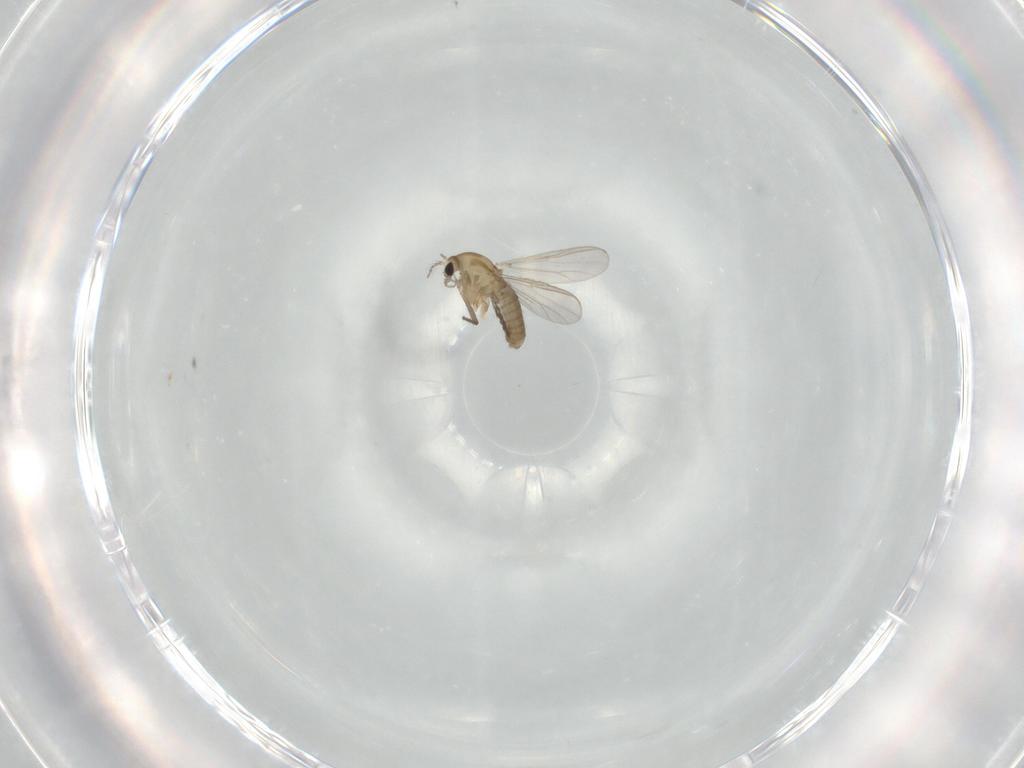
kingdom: Animalia
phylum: Arthropoda
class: Insecta
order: Diptera
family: Chironomidae
